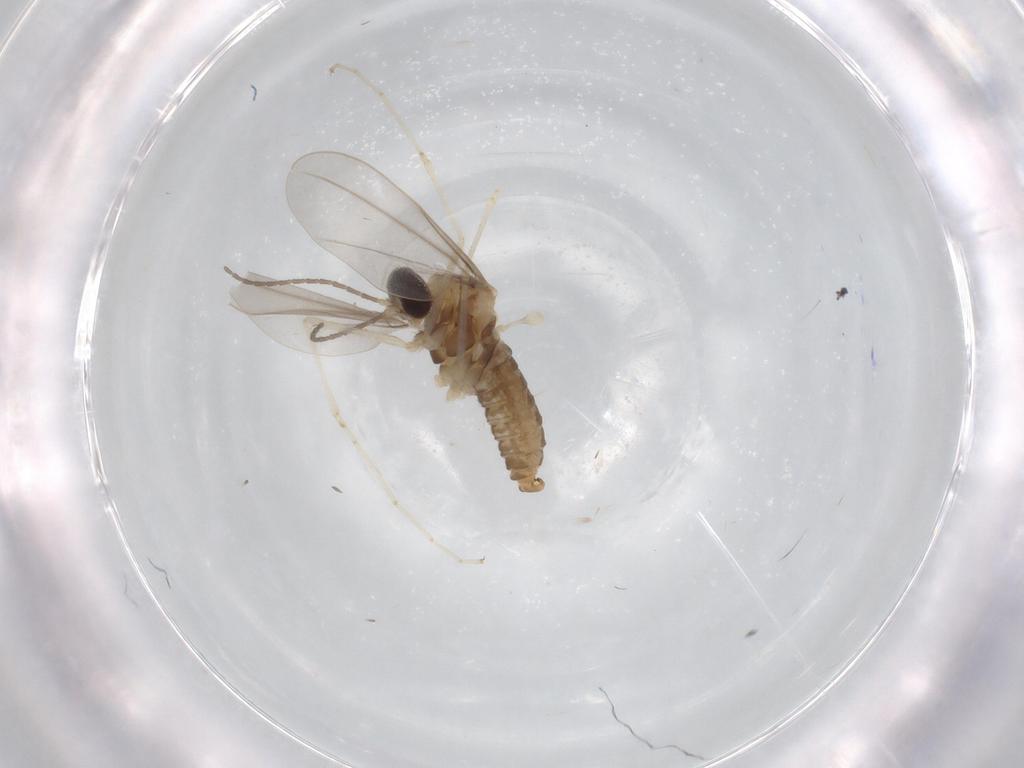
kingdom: Animalia
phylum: Arthropoda
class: Insecta
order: Diptera
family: Cecidomyiidae
